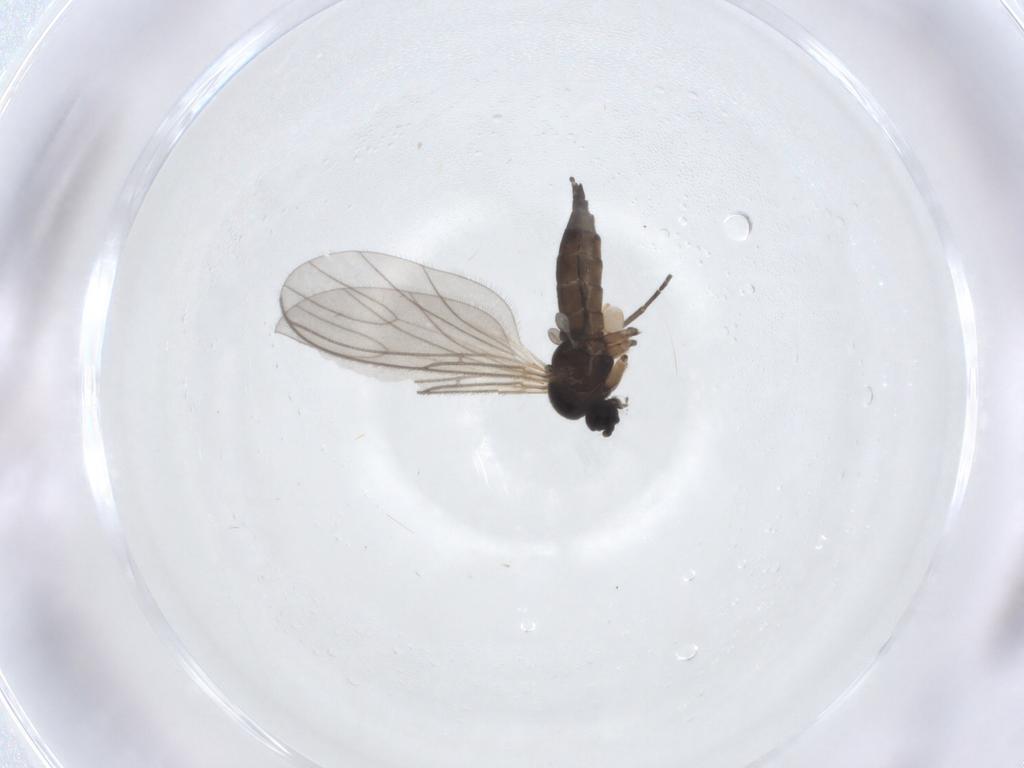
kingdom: Animalia
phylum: Arthropoda
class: Insecta
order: Diptera
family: Sciaridae
